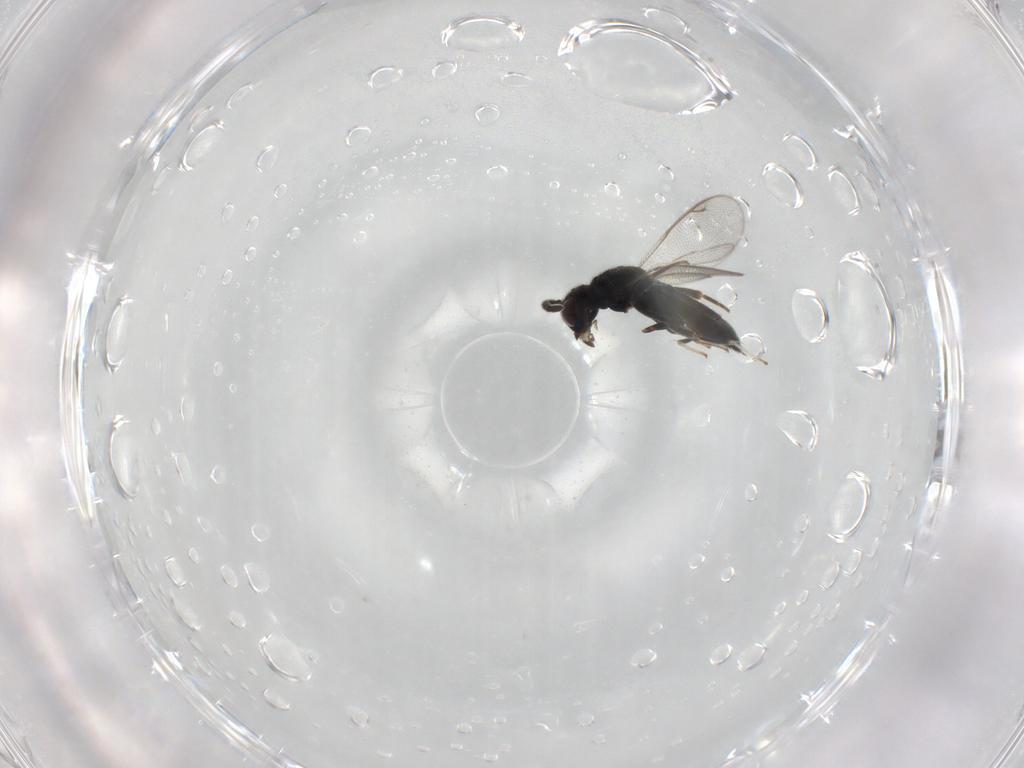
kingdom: Animalia
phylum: Arthropoda
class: Insecta
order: Hymenoptera
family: Cleonyminae
